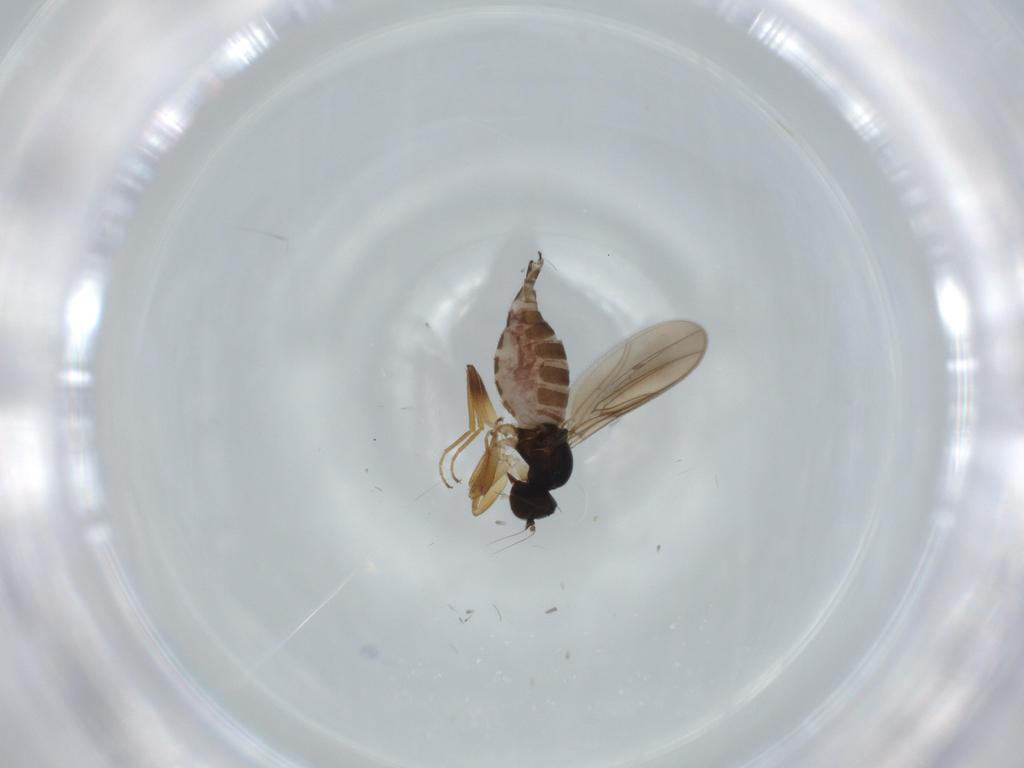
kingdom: Animalia
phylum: Arthropoda
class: Insecta
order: Diptera
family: Hybotidae
